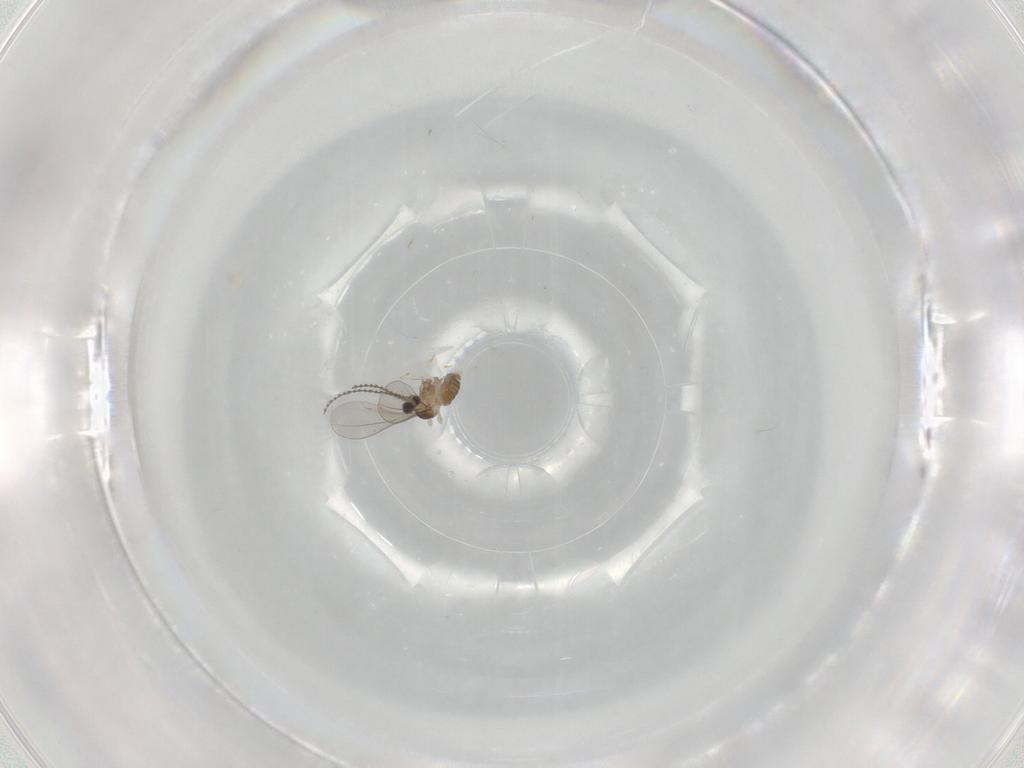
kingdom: Animalia
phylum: Arthropoda
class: Insecta
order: Diptera
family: Cecidomyiidae
